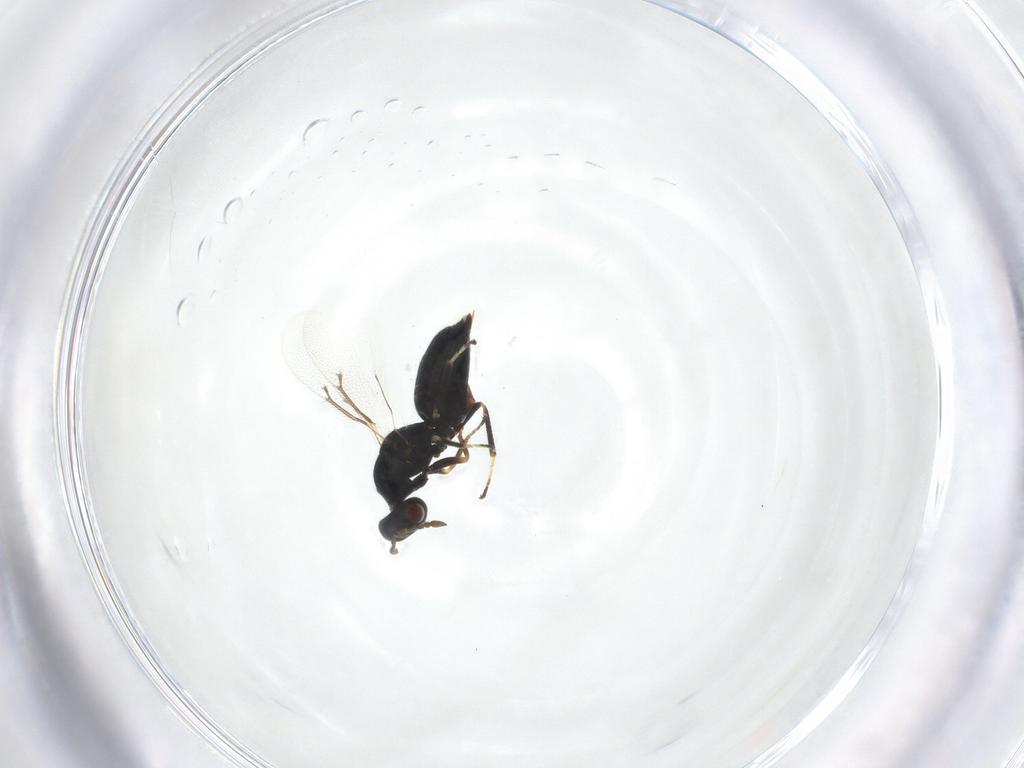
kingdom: Animalia
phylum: Arthropoda
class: Insecta
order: Hymenoptera
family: Eulophidae
